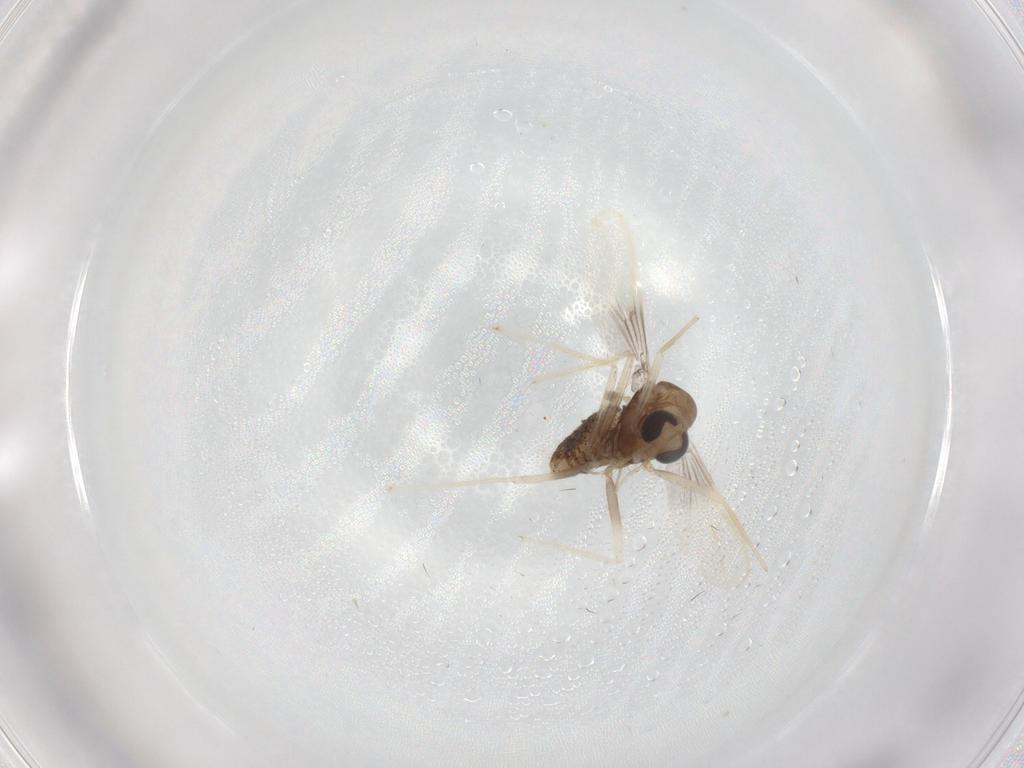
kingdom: Animalia
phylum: Arthropoda
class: Insecta
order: Diptera
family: Chironomidae
